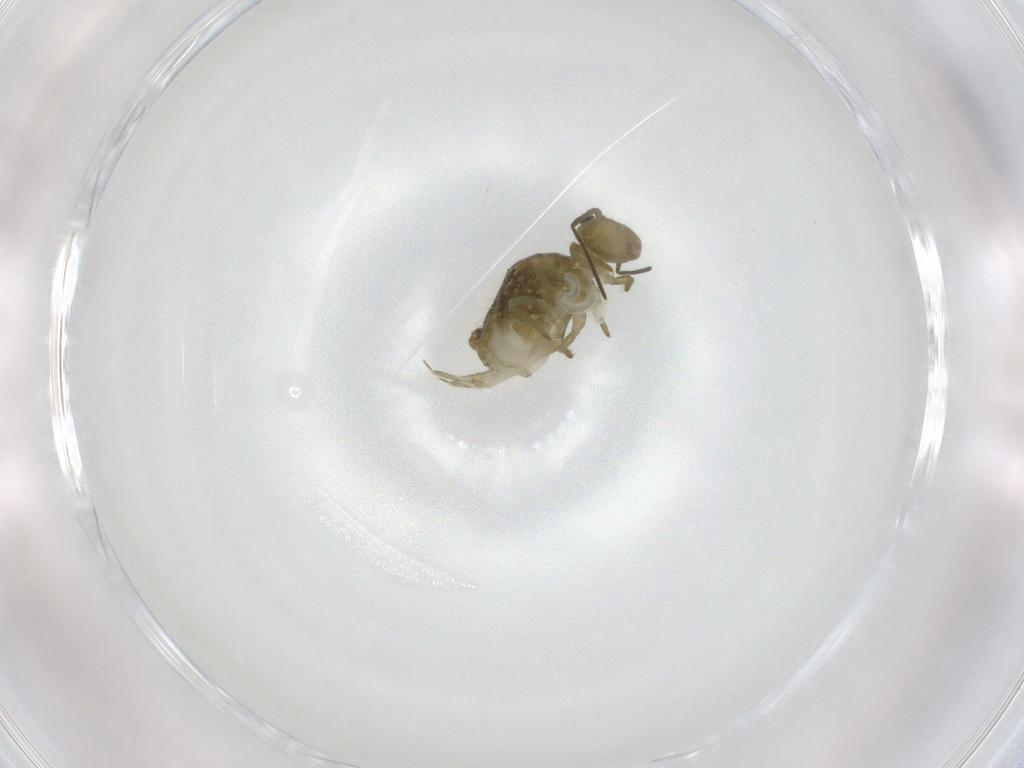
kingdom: Animalia
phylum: Arthropoda
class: Collembola
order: Symphypleona
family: Sminthuridae
